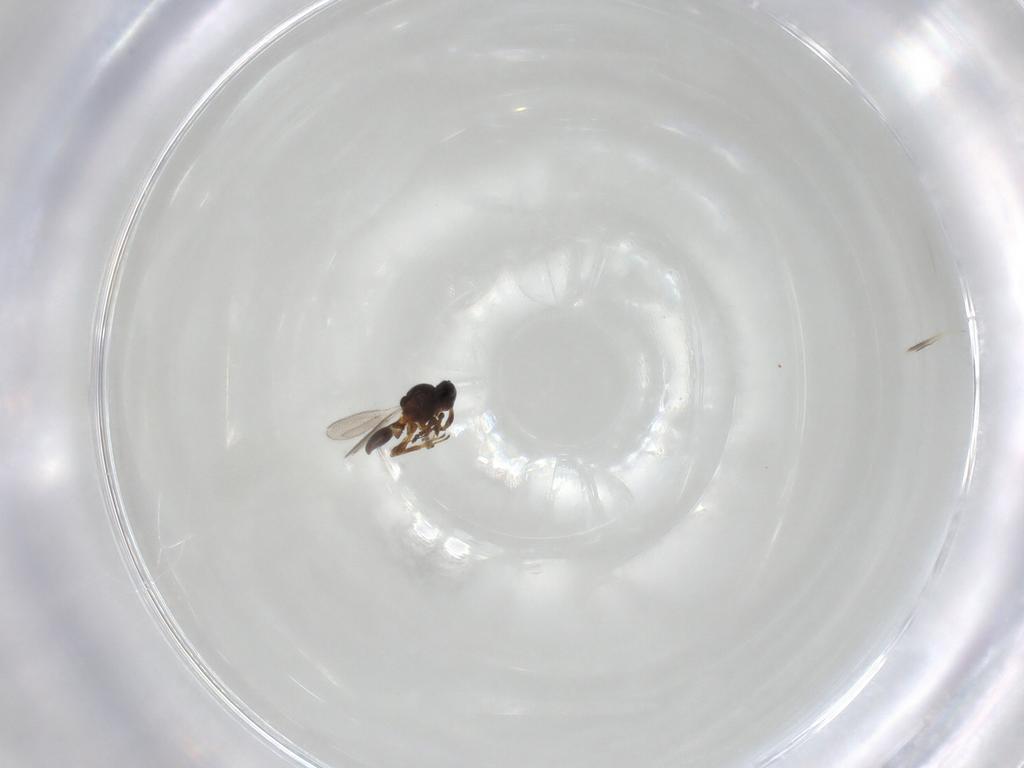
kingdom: Animalia
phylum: Arthropoda
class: Insecta
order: Hymenoptera
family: Platygastridae
